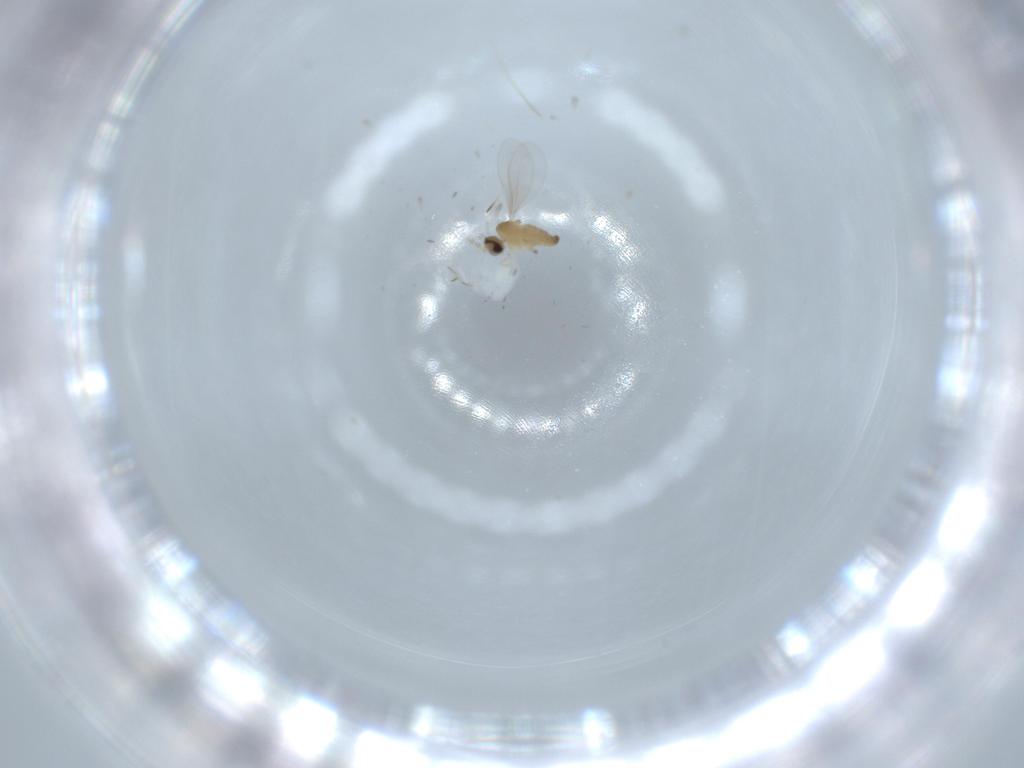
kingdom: Animalia
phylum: Arthropoda
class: Insecta
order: Diptera
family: Cecidomyiidae
